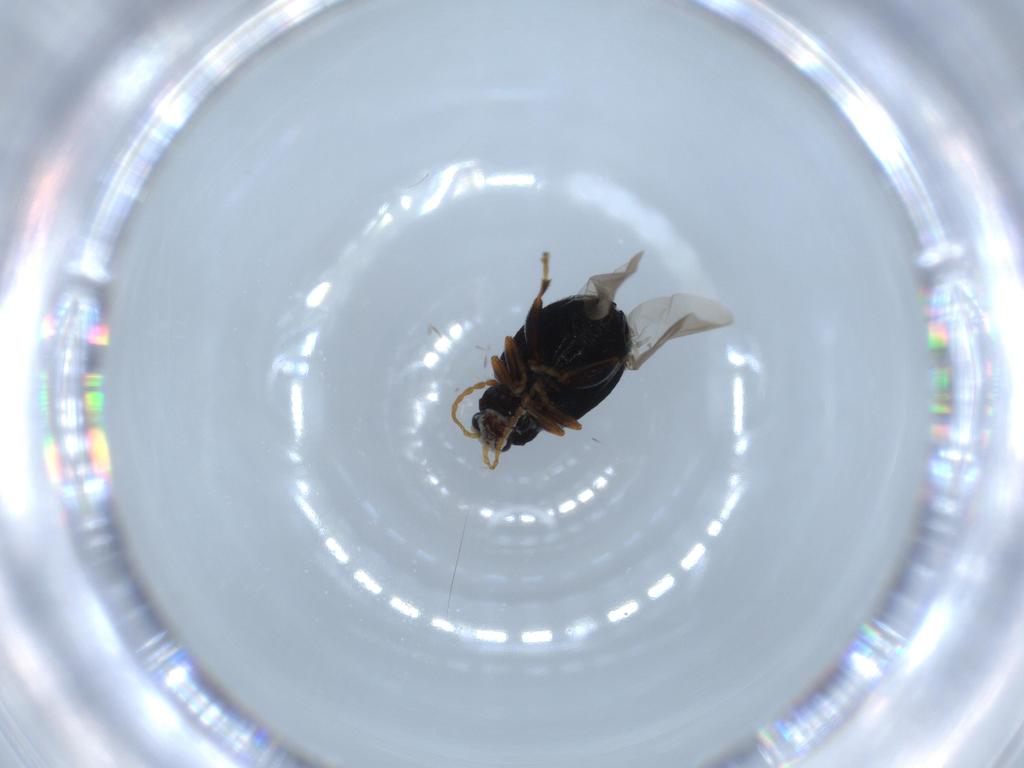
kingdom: Animalia
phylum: Arthropoda
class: Insecta
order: Coleoptera
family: Chrysomelidae
